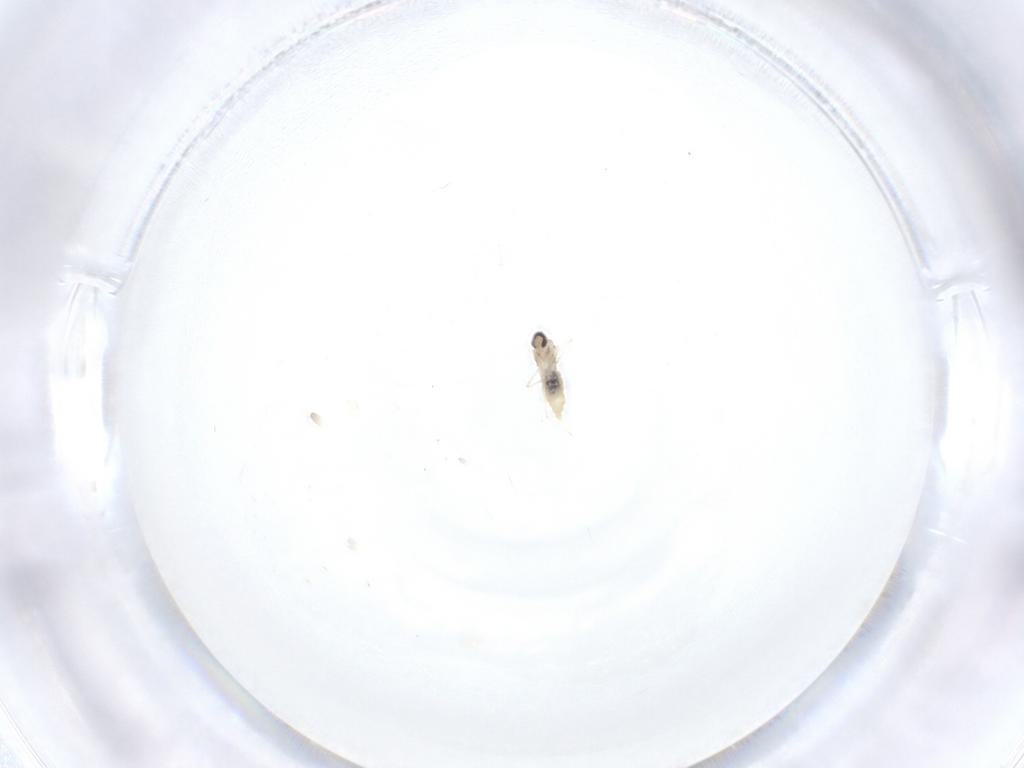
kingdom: Animalia
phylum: Arthropoda
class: Insecta
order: Diptera
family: Cecidomyiidae
